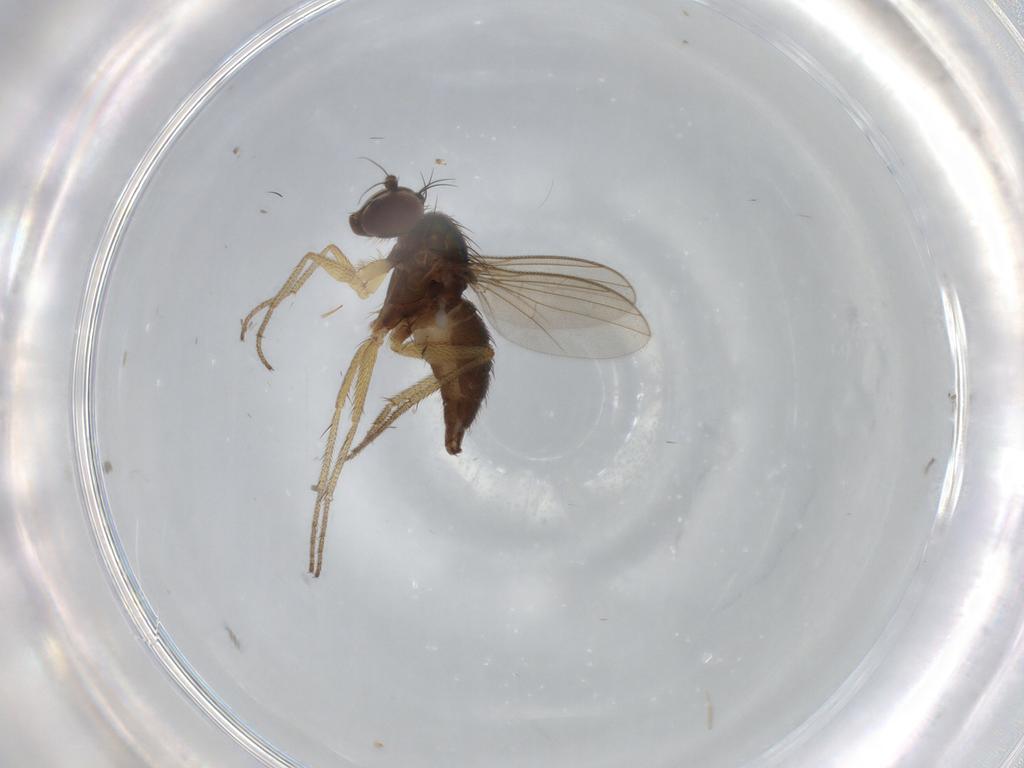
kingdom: Animalia
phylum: Arthropoda
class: Insecta
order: Diptera
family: Dolichopodidae
